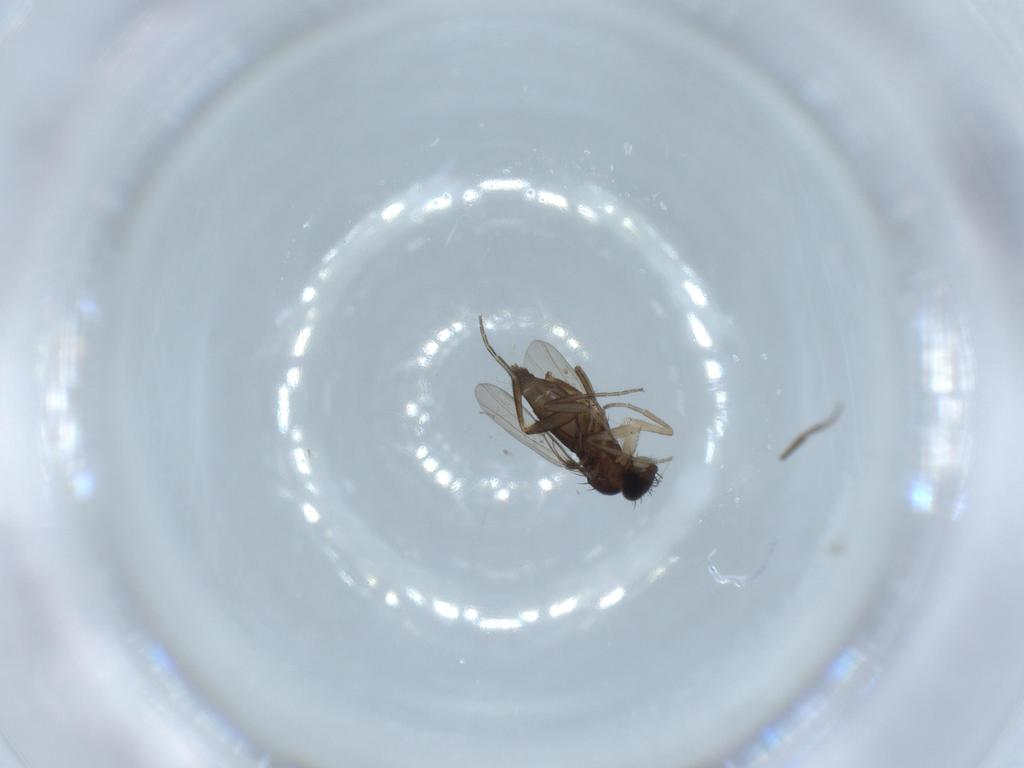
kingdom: Animalia
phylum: Arthropoda
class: Insecta
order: Diptera
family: Phoridae
